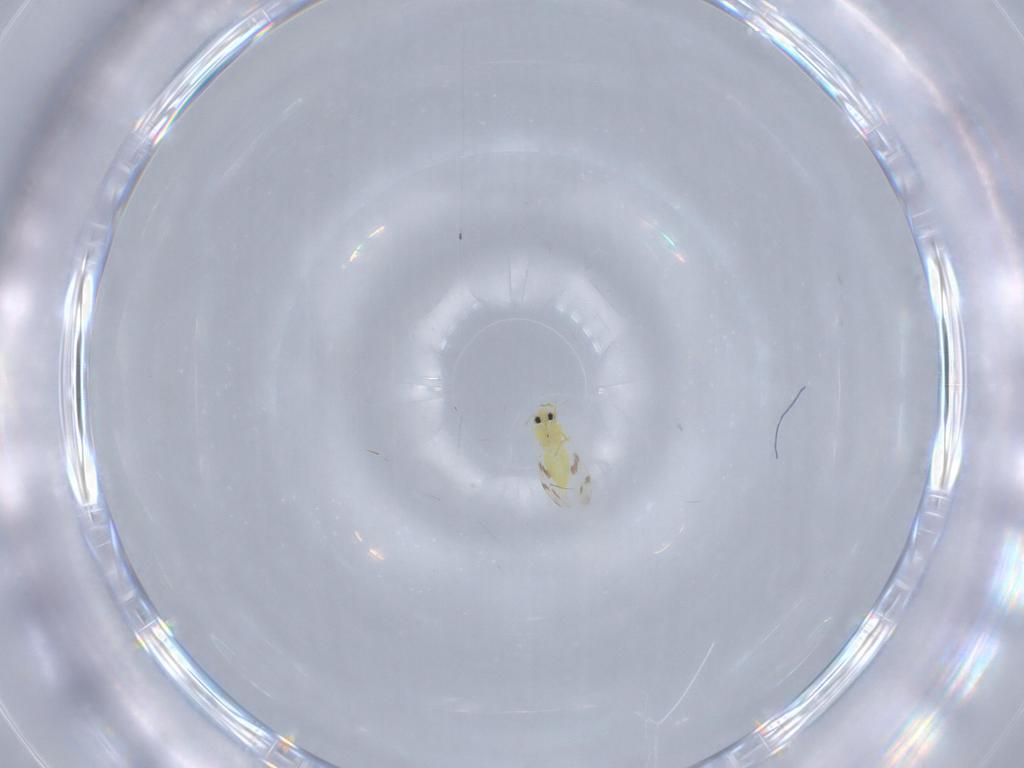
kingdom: Animalia
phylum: Arthropoda
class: Insecta
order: Hemiptera
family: Aleyrodidae
